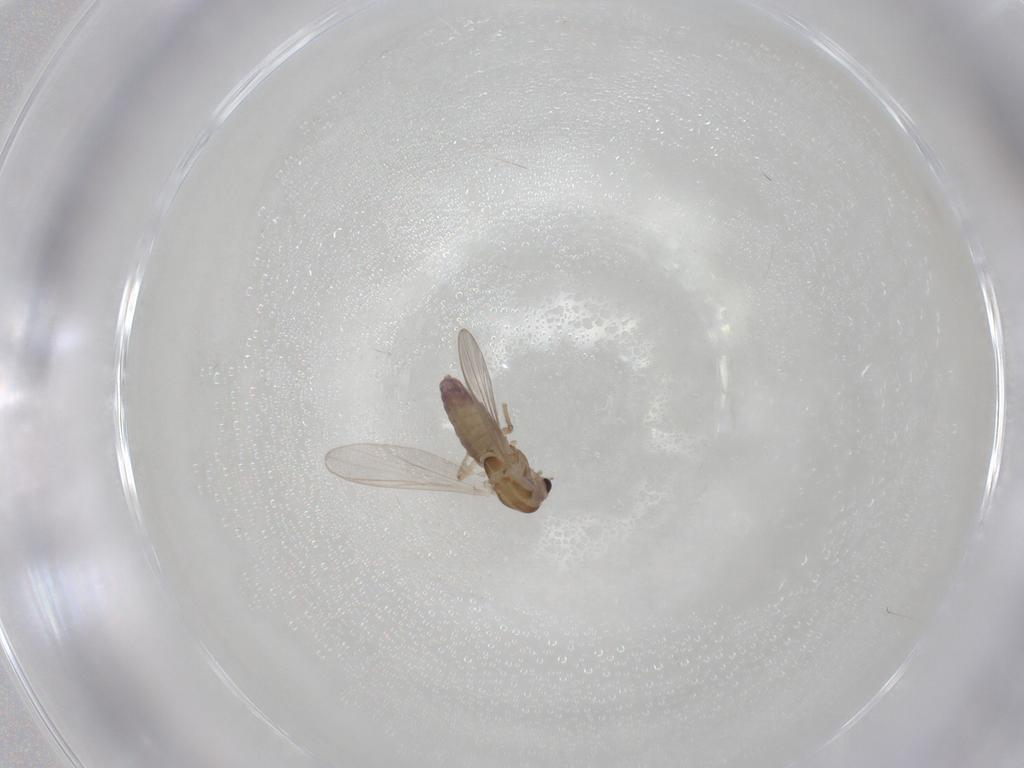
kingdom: Animalia
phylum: Arthropoda
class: Insecta
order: Diptera
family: Chironomidae
